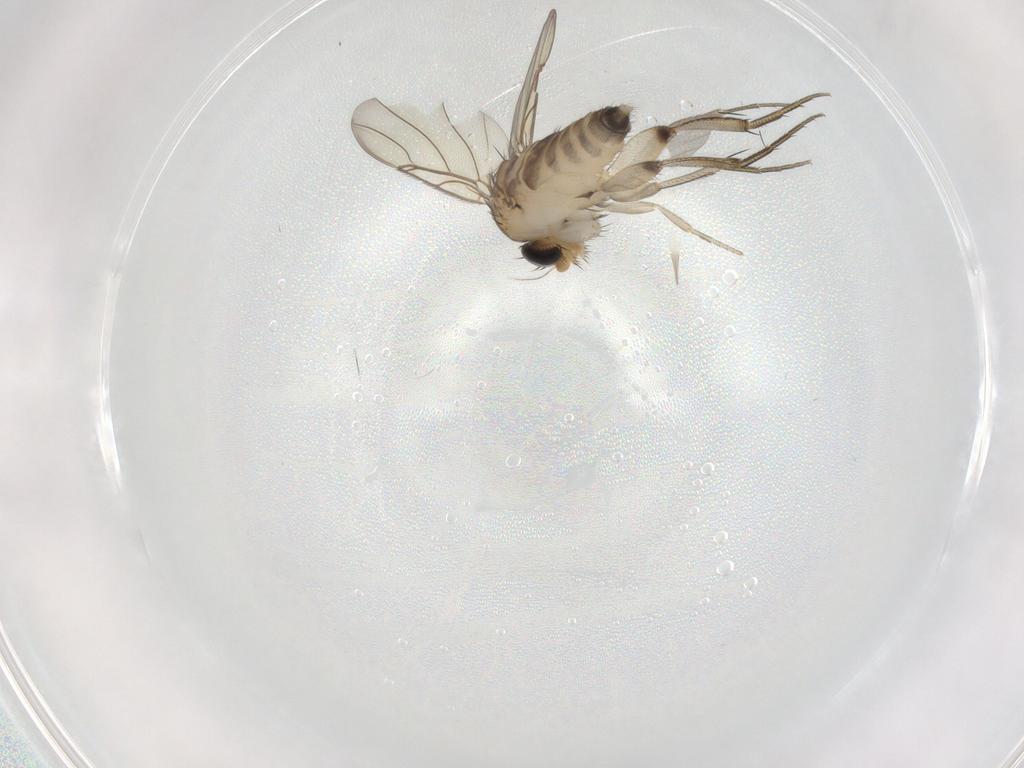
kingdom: Animalia
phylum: Arthropoda
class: Insecta
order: Diptera
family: Phoridae
